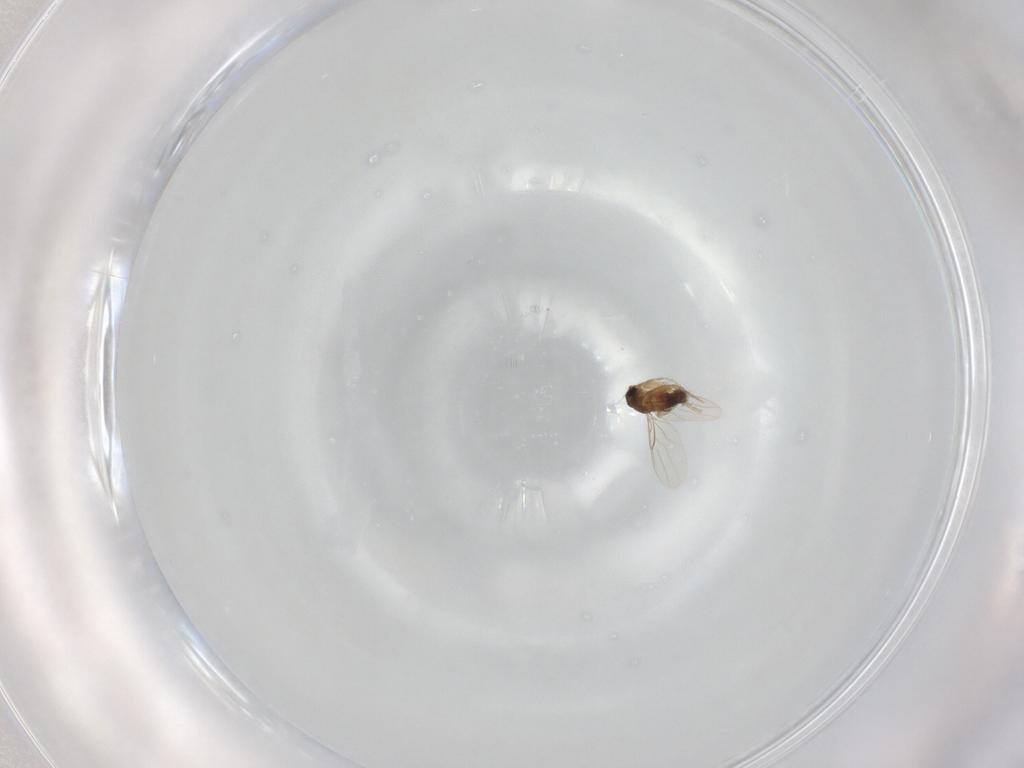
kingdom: Animalia
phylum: Arthropoda
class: Insecta
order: Diptera
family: Phoridae
